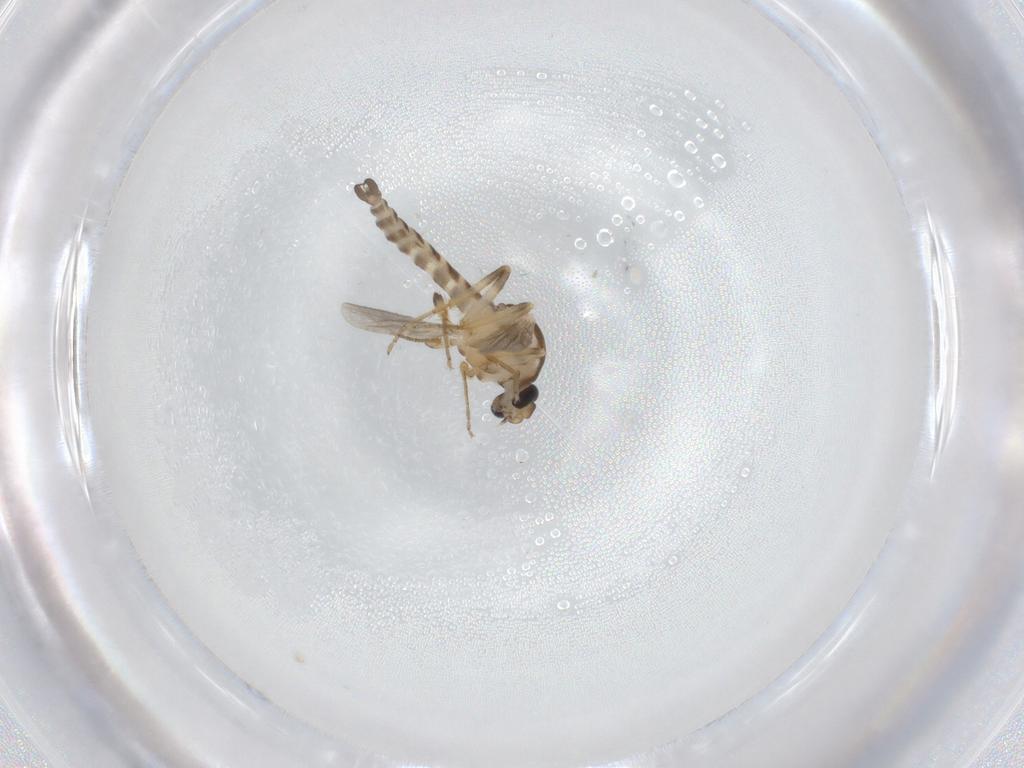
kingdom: Animalia
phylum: Arthropoda
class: Insecta
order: Diptera
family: Ceratopogonidae
